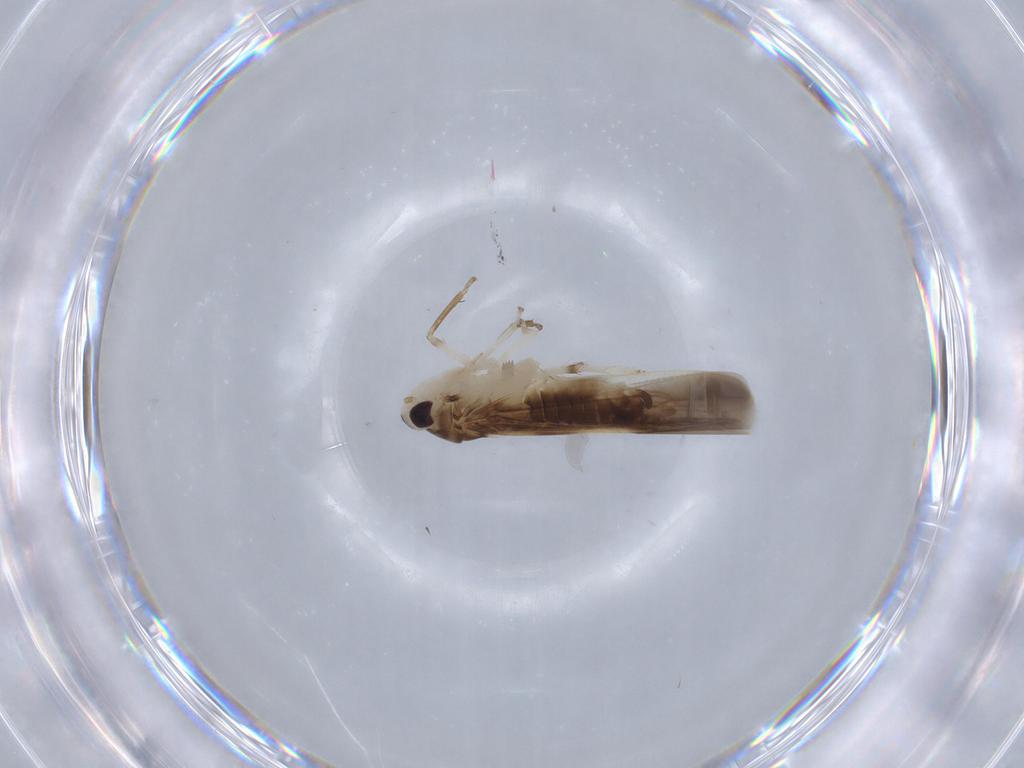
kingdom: Animalia
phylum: Arthropoda
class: Insecta
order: Hemiptera
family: Cicadellidae
